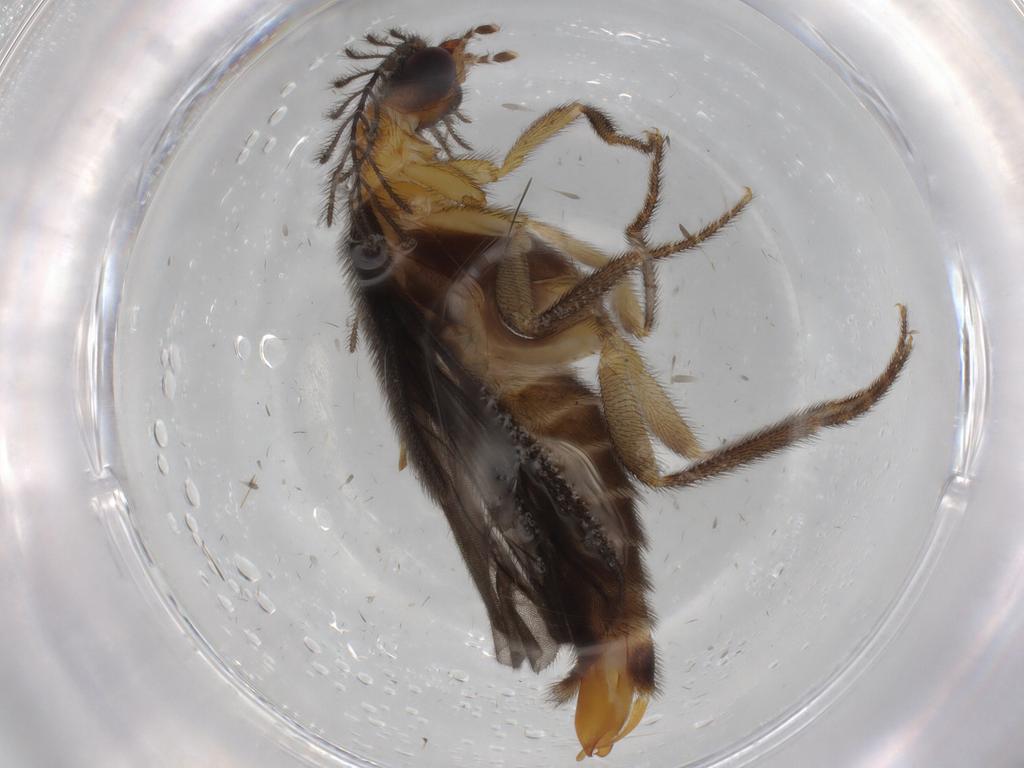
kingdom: Animalia
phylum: Arthropoda
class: Insecta
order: Coleoptera
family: Phengodidae
